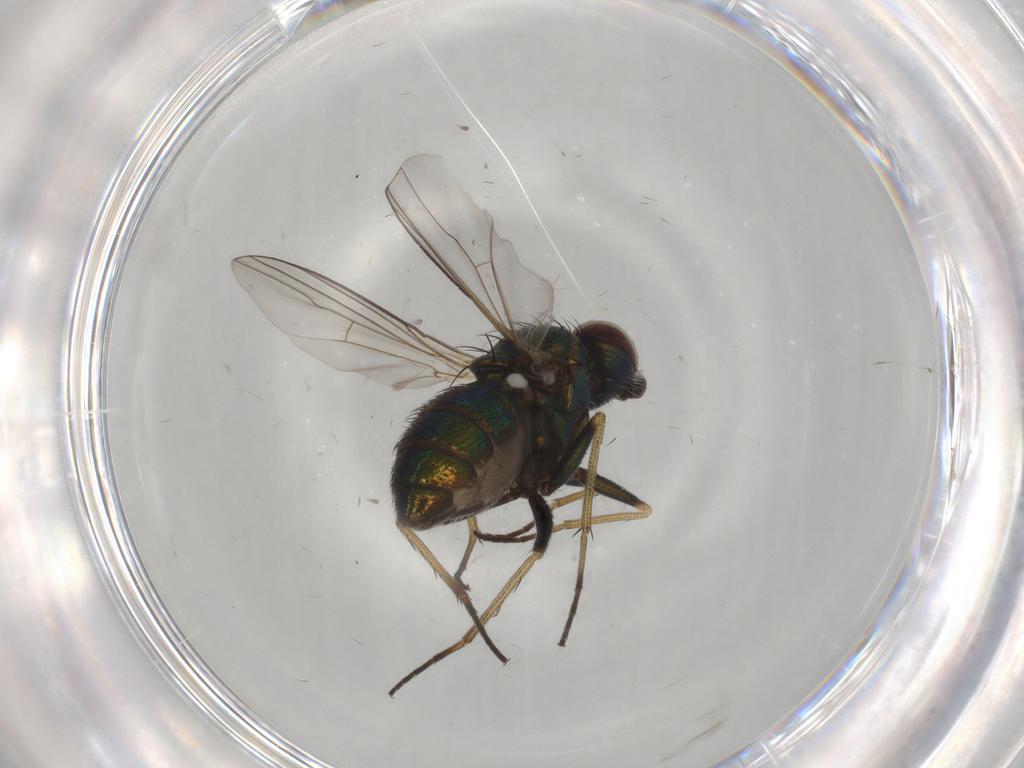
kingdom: Animalia
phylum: Arthropoda
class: Insecta
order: Diptera
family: Dolichopodidae
